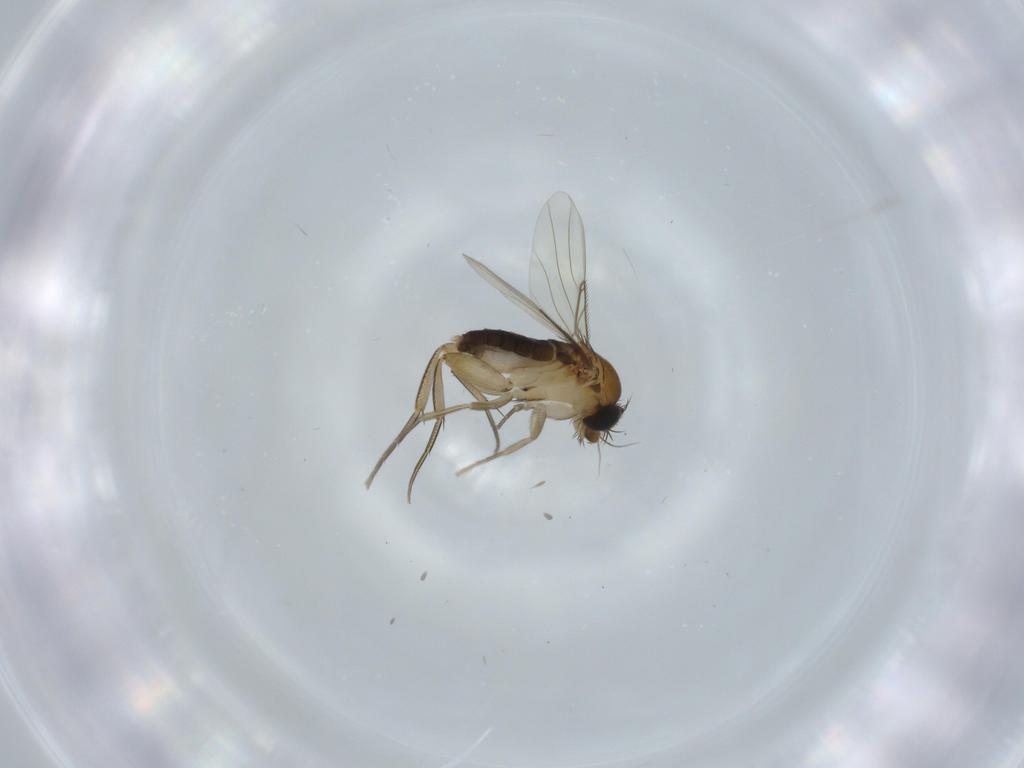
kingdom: Animalia
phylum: Arthropoda
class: Insecta
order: Diptera
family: Phoridae
